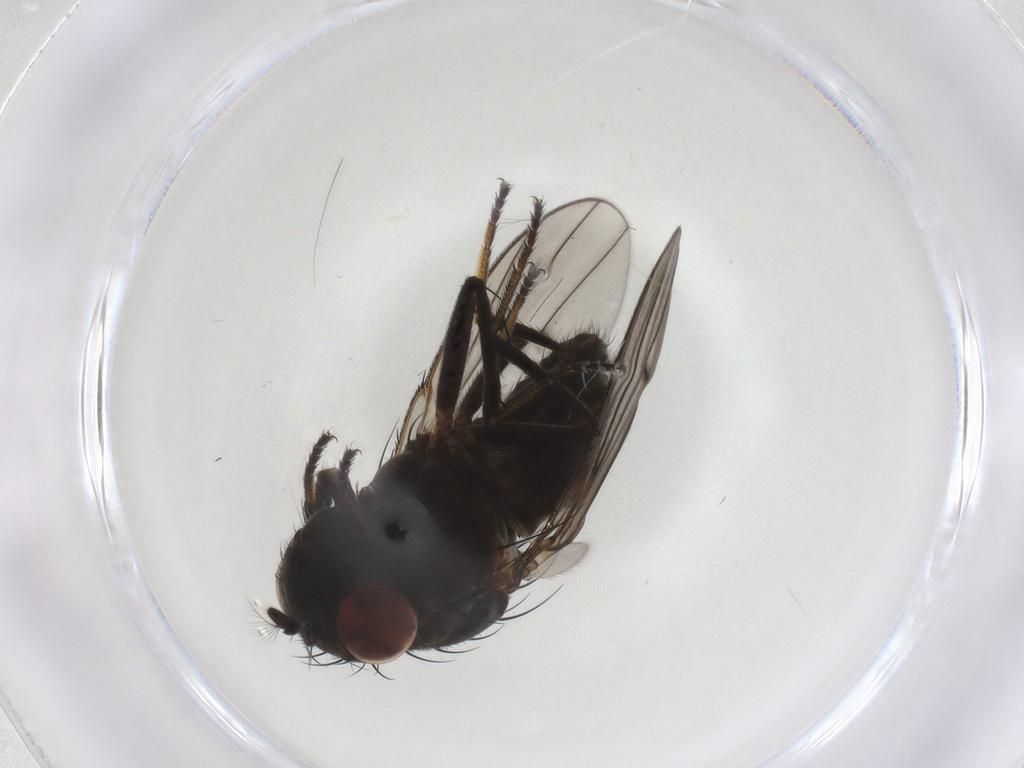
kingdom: Animalia
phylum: Arthropoda
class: Insecta
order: Diptera
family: Ephydridae
